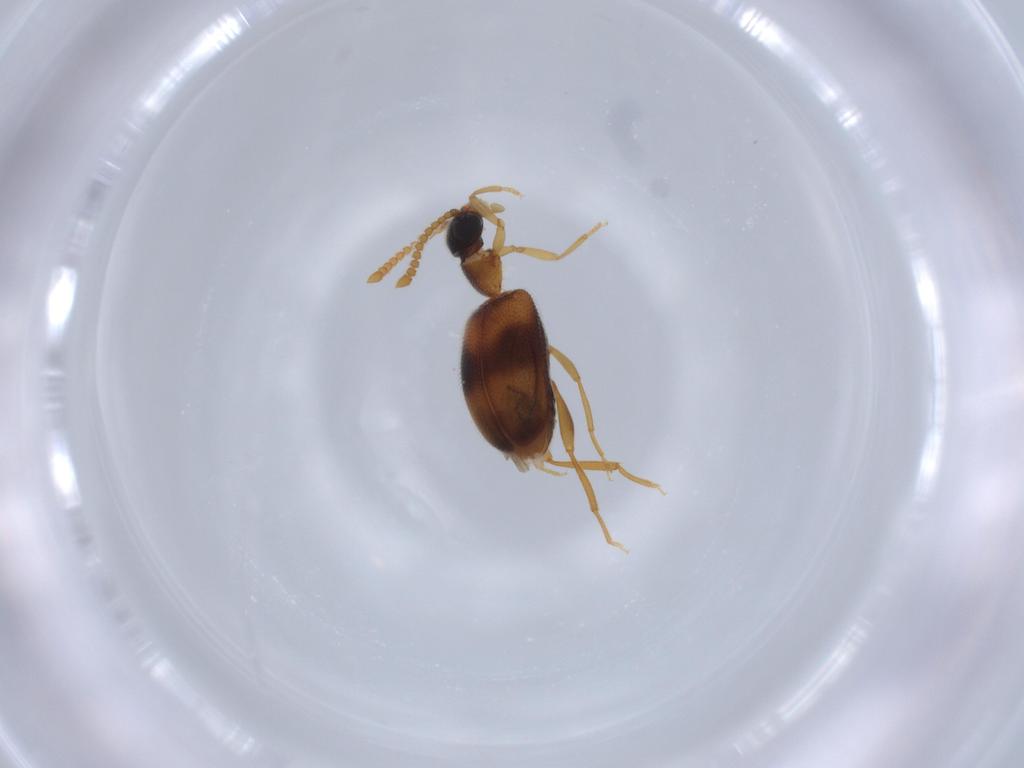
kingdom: Animalia
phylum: Arthropoda
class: Insecta
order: Coleoptera
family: Aderidae
